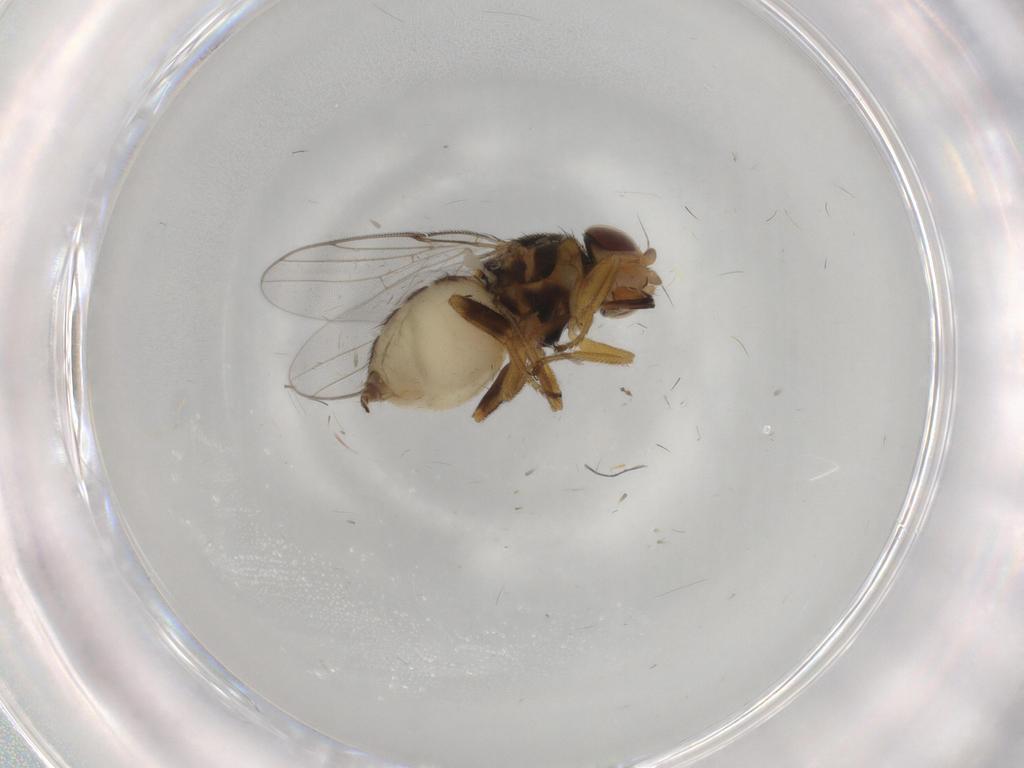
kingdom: Animalia
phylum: Arthropoda
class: Insecta
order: Diptera
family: Chloropidae
